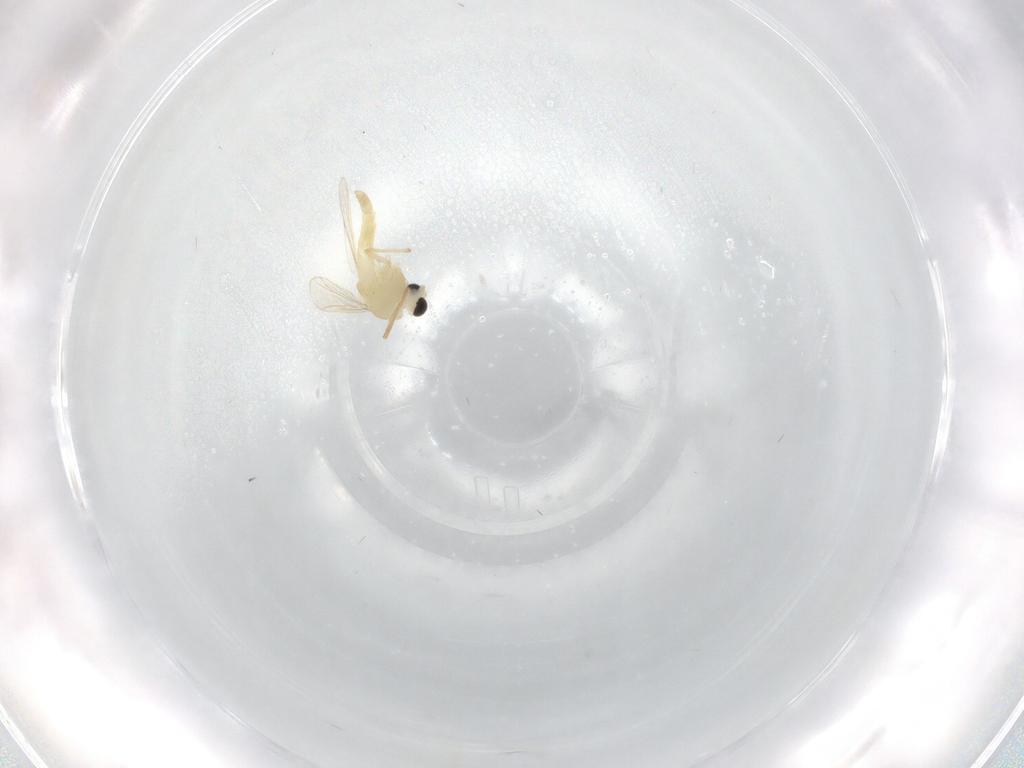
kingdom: Animalia
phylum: Arthropoda
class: Insecta
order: Diptera
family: Chironomidae
